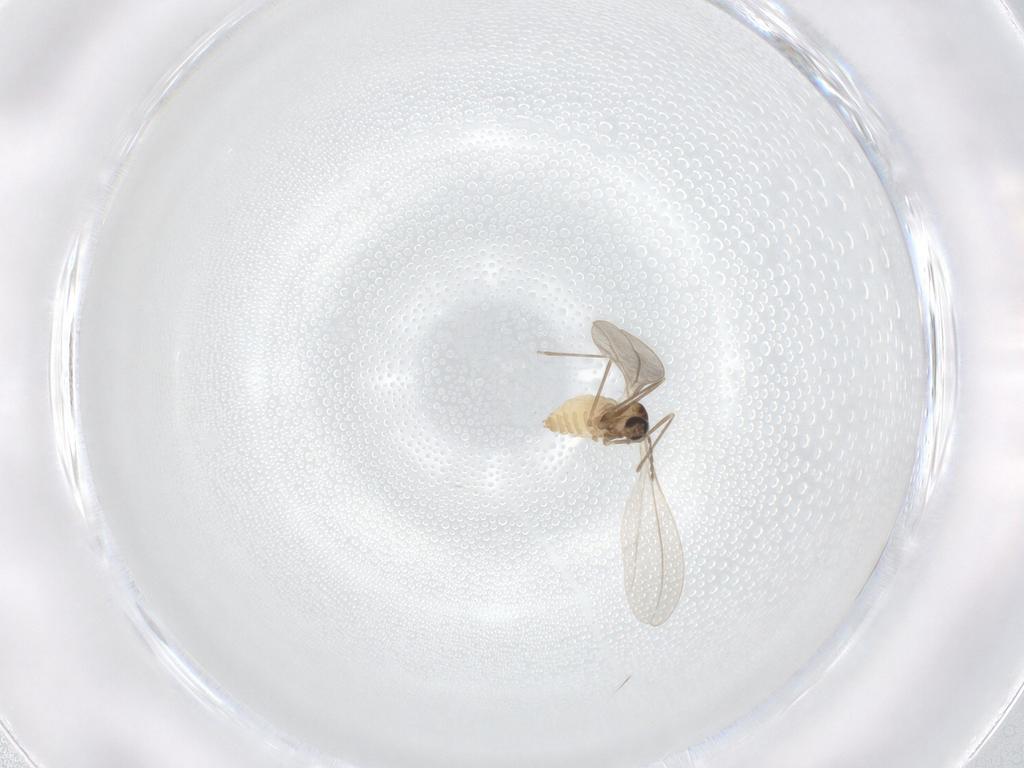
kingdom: Animalia
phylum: Arthropoda
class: Insecta
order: Diptera
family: Cecidomyiidae
